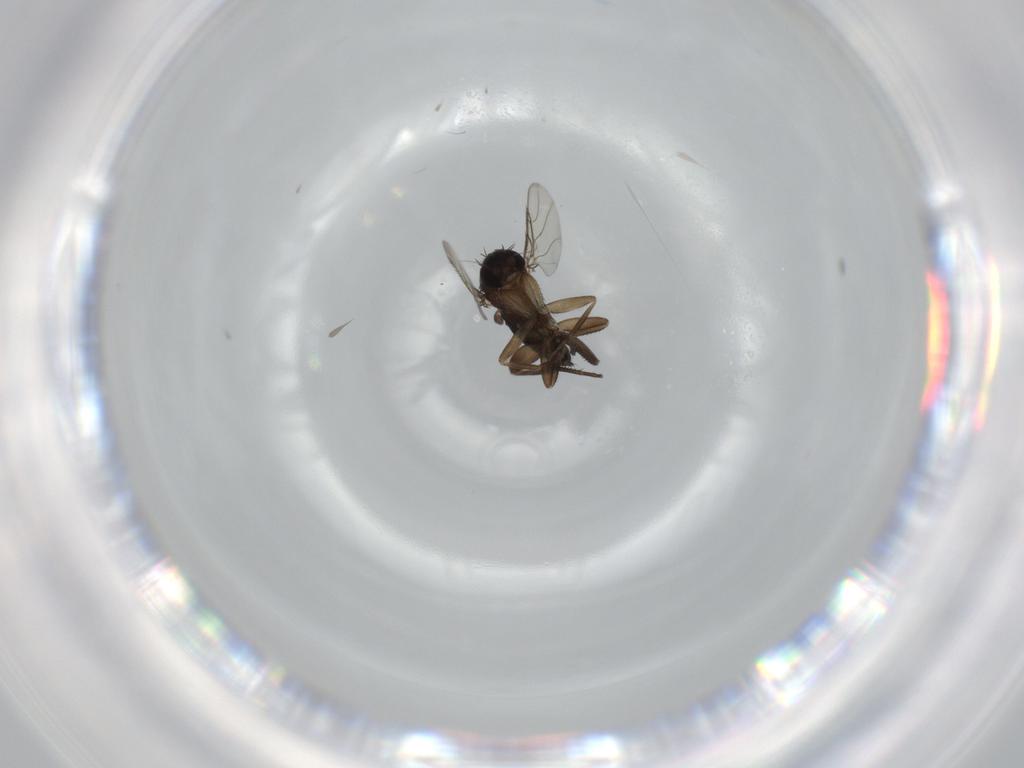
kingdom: Animalia
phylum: Arthropoda
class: Insecta
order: Diptera
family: Phoridae
